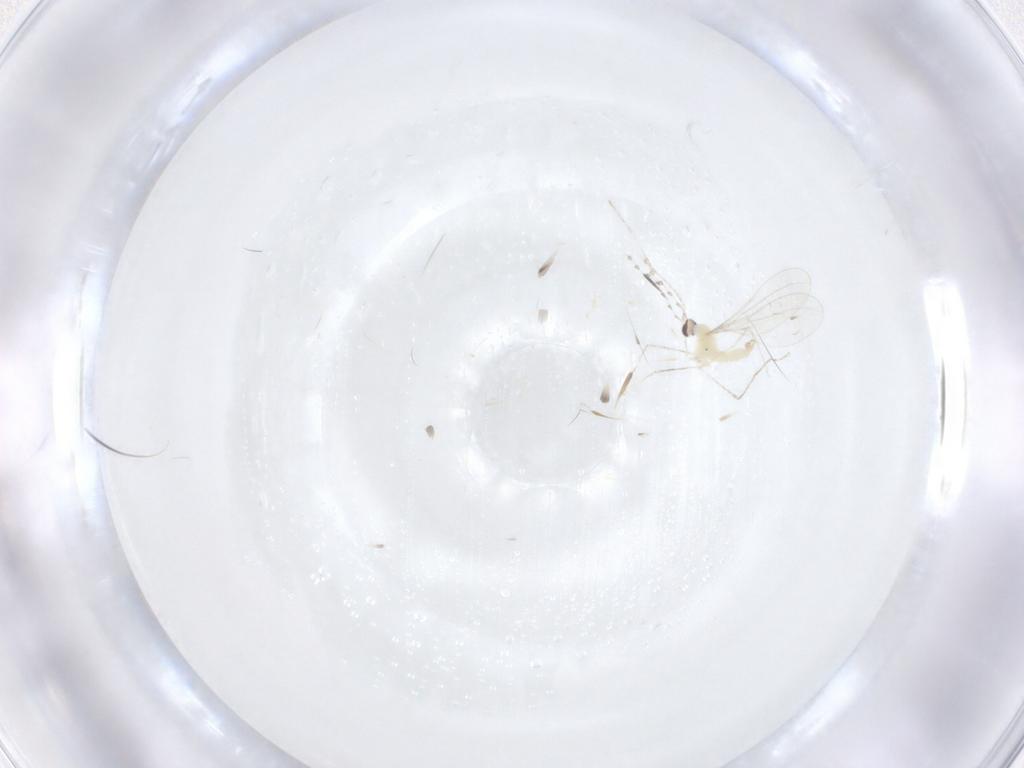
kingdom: Animalia
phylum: Arthropoda
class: Insecta
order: Diptera
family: Cecidomyiidae
